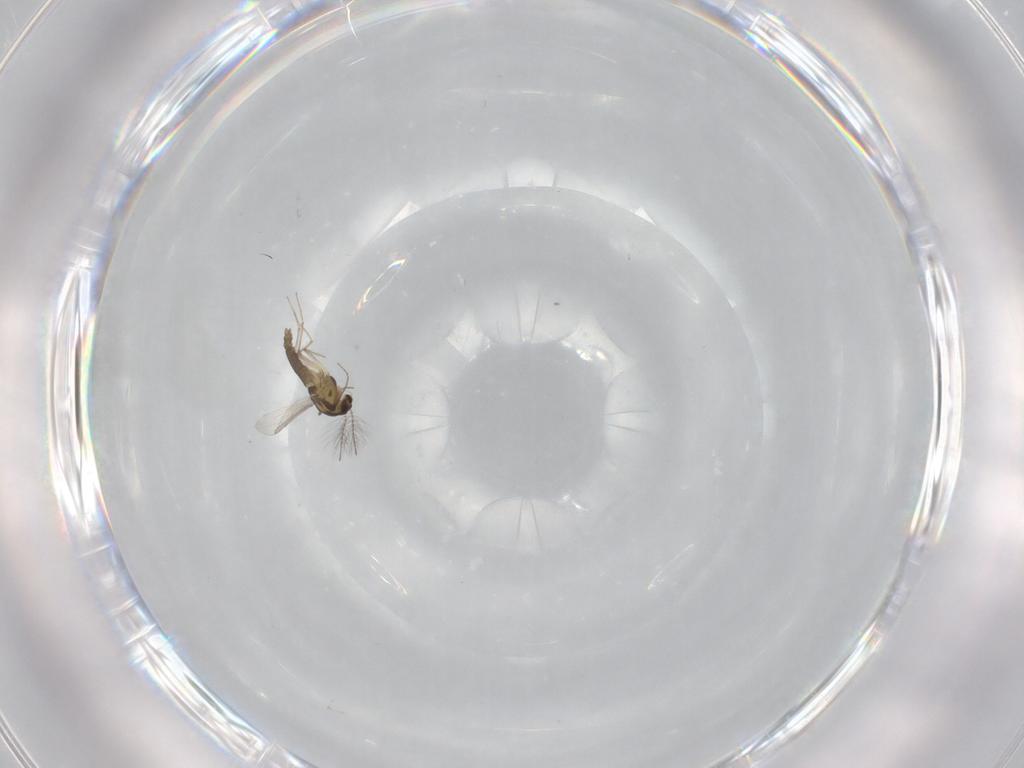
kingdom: Animalia
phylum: Arthropoda
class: Insecta
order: Diptera
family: Chironomidae
